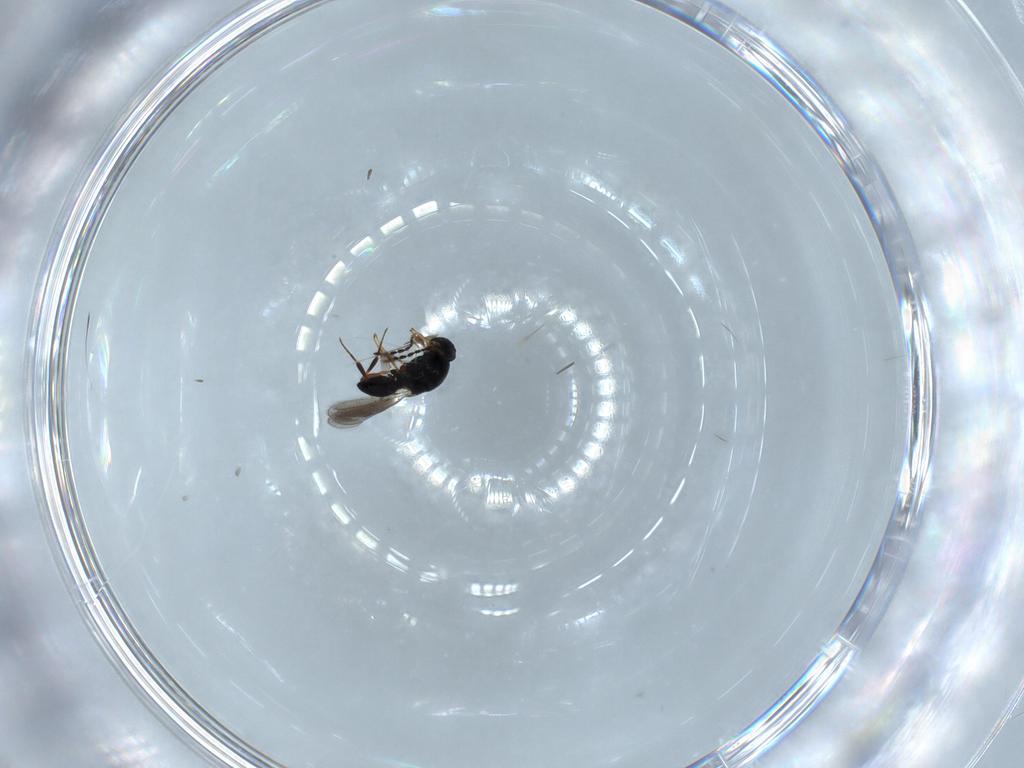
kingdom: Animalia
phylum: Arthropoda
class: Insecta
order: Hymenoptera
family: Platygastridae
